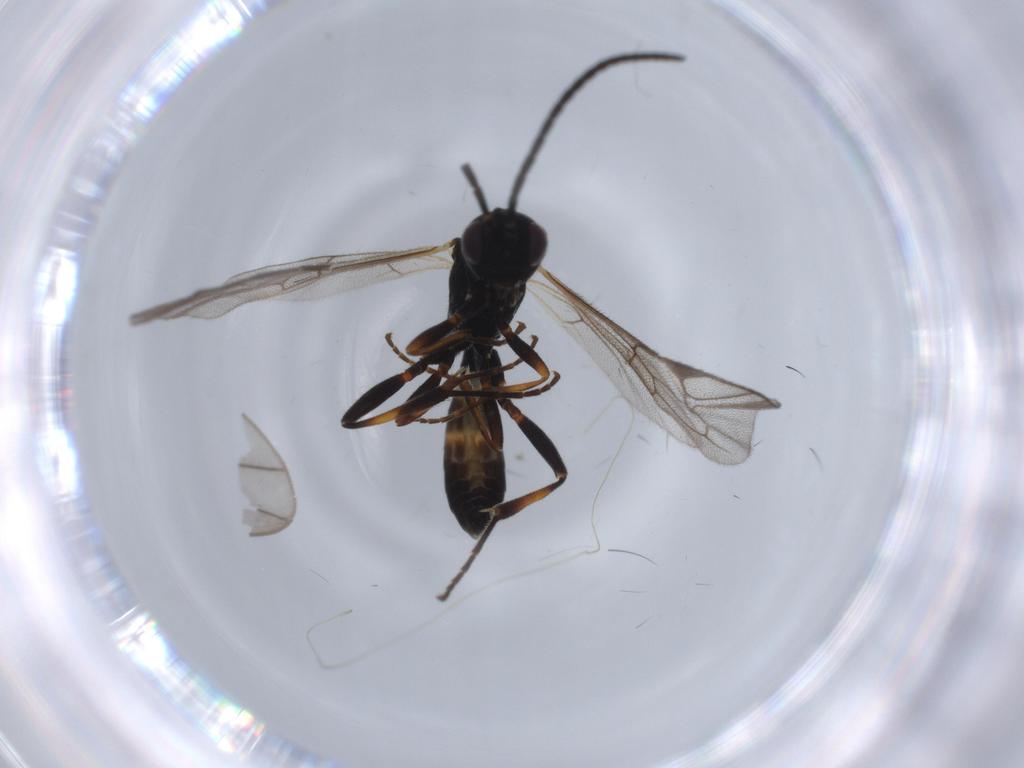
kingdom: Animalia
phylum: Arthropoda
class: Insecta
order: Hymenoptera
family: Ichneumonidae
